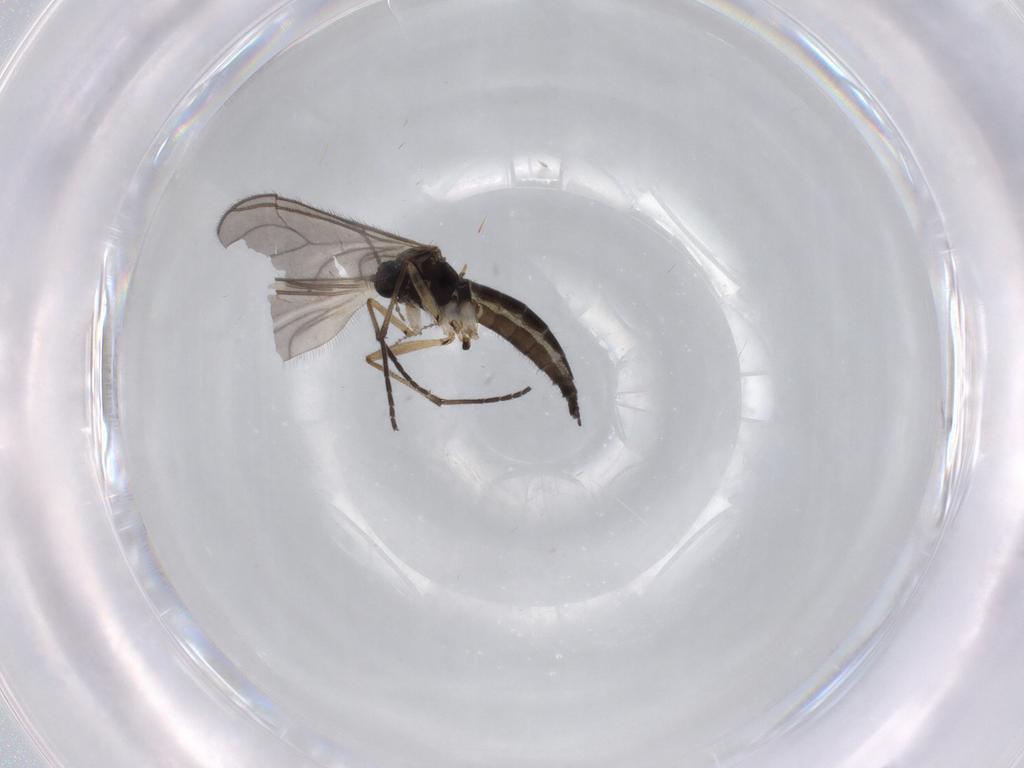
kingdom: Animalia
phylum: Arthropoda
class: Insecta
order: Diptera
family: Sciaridae
